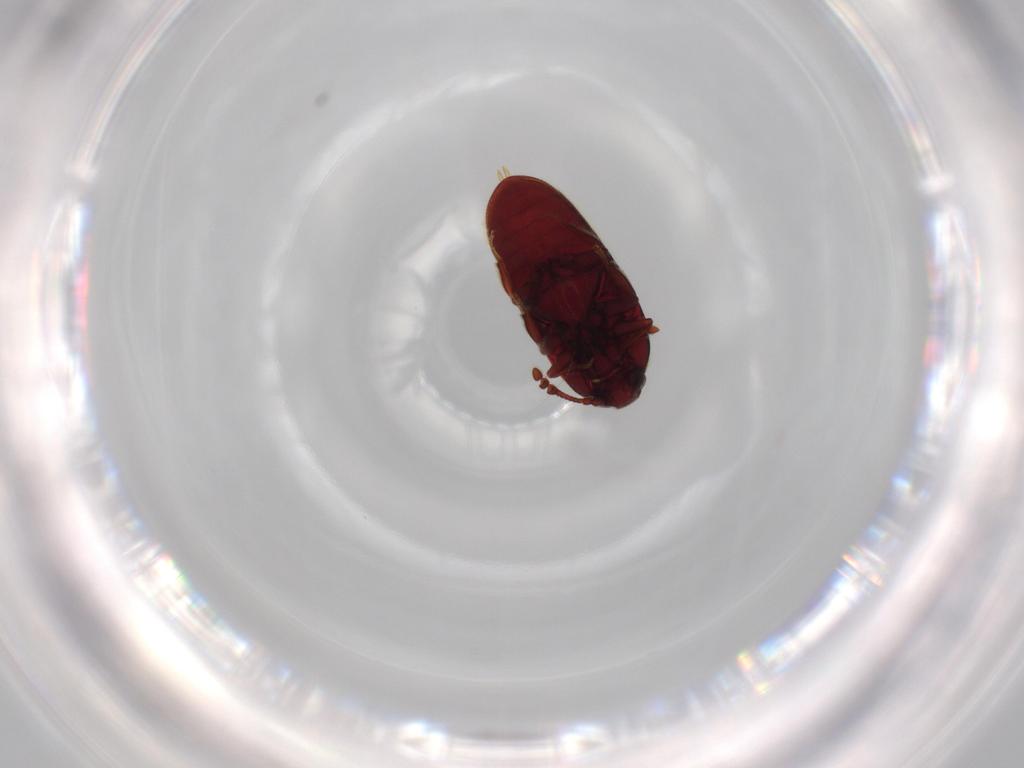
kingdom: Animalia
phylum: Arthropoda
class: Insecta
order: Coleoptera
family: Throscidae
